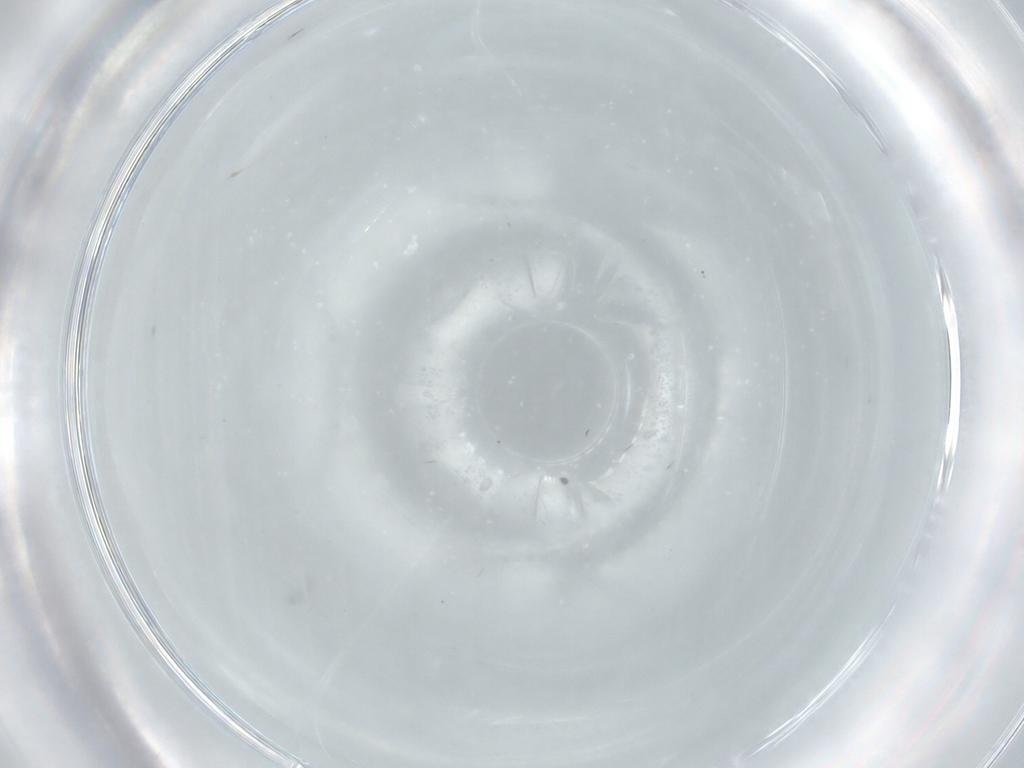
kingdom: Animalia
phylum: Arthropoda
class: Insecta
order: Diptera
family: Cecidomyiidae
